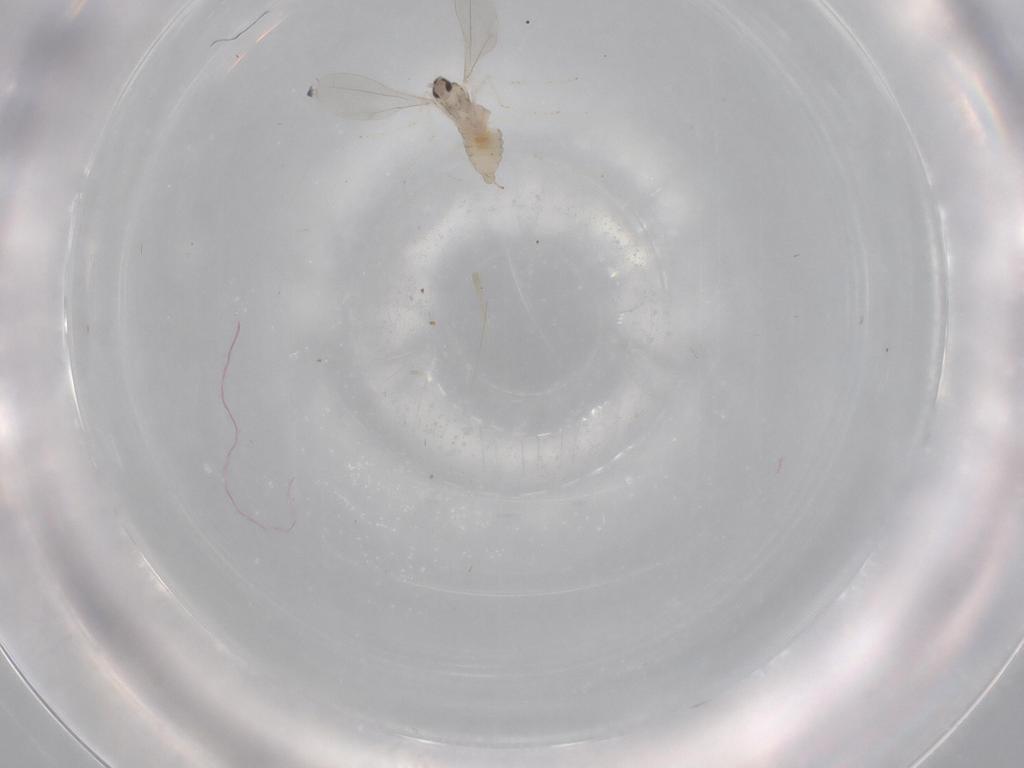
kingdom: Animalia
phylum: Arthropoda
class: Insecta
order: Diptera
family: Cecidomyiidae
